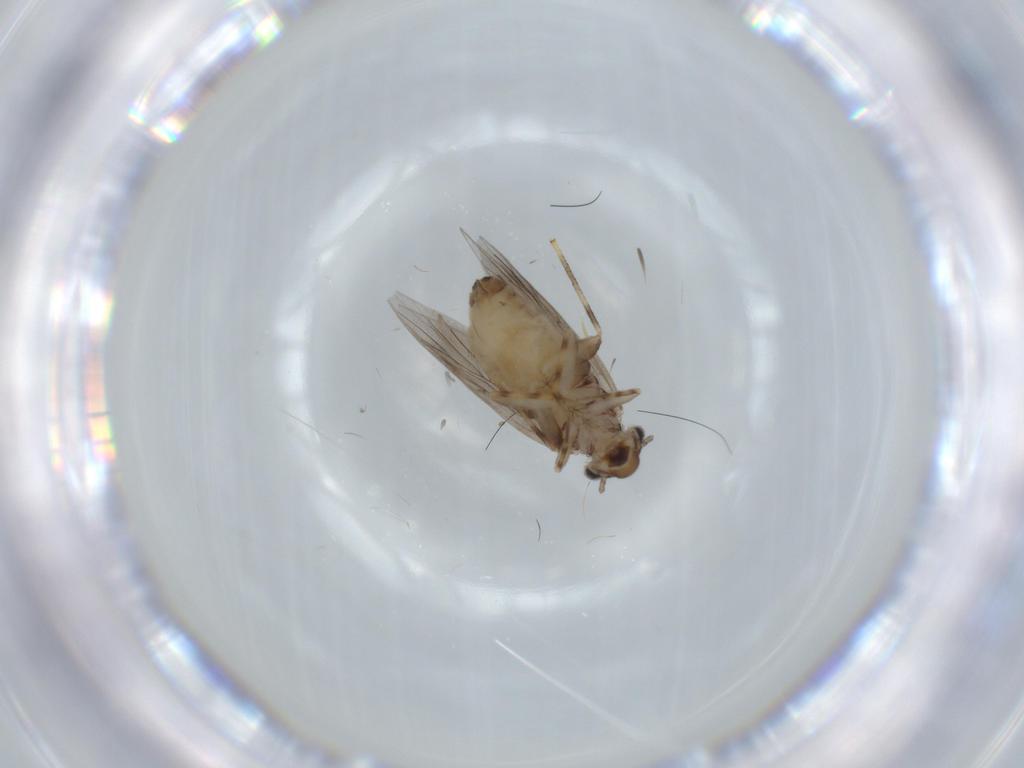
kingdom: Animalia
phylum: Arthropoda
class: Insecta
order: Psocodea
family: Lepidopsocidae
